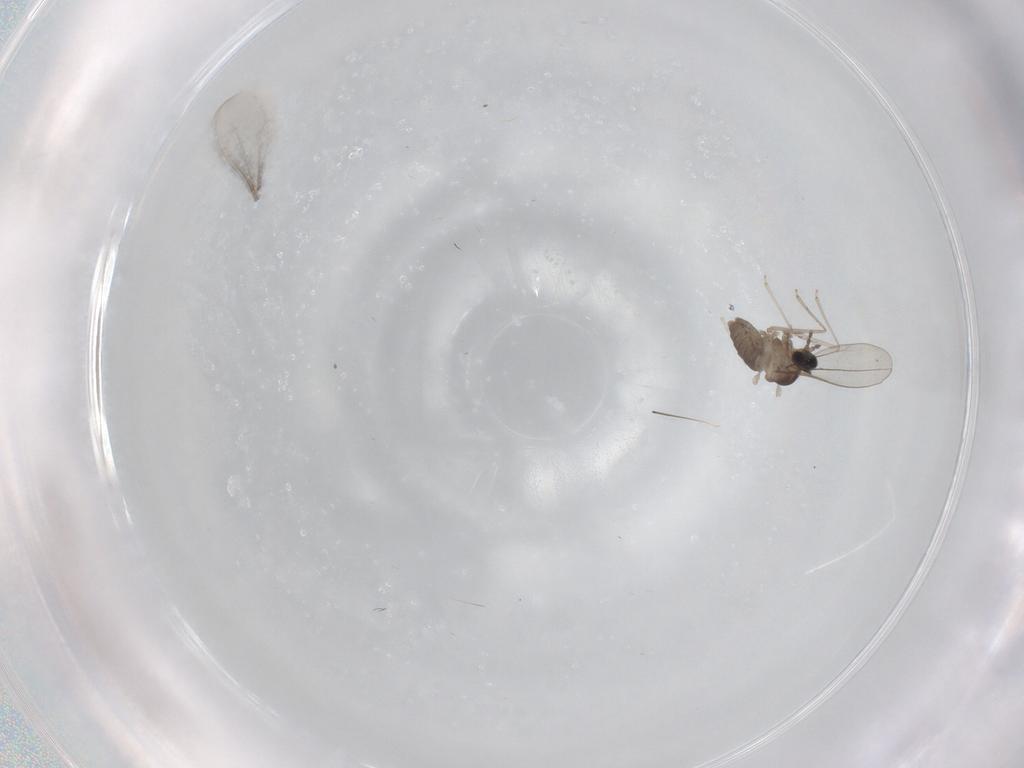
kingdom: Animalia
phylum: Arthropoda
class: Insecta
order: Diptera
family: Cecidomyiidae
